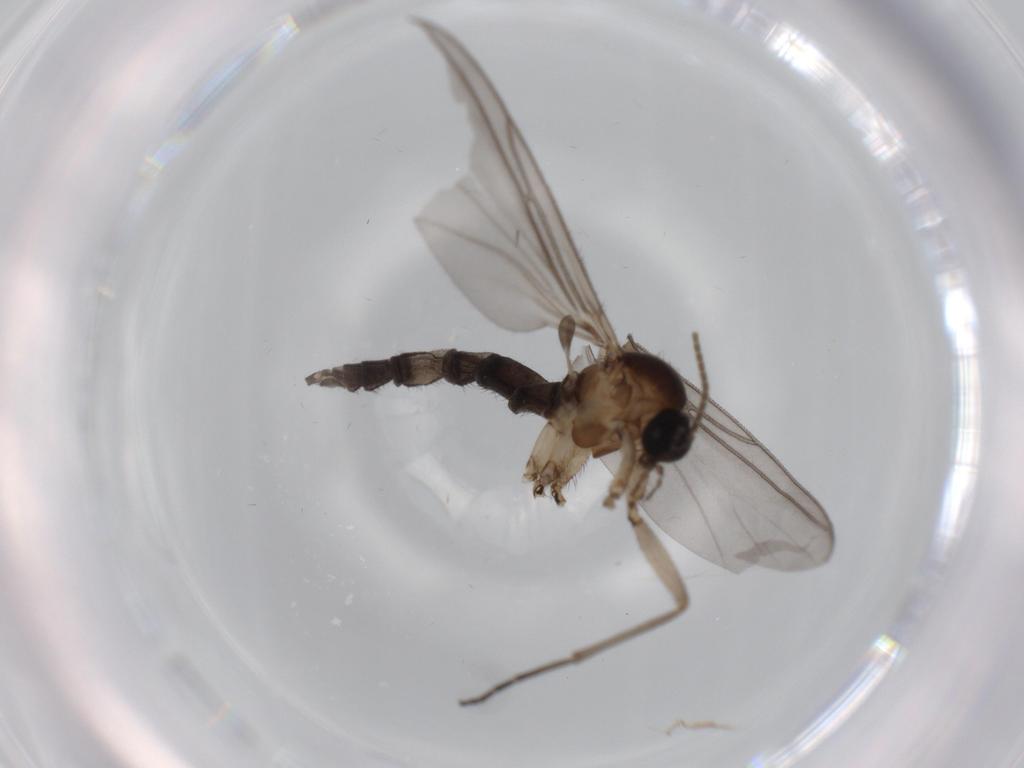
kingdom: Animalia
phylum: Arthropoda
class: Insecta
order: Diptera
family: Sciaridae
